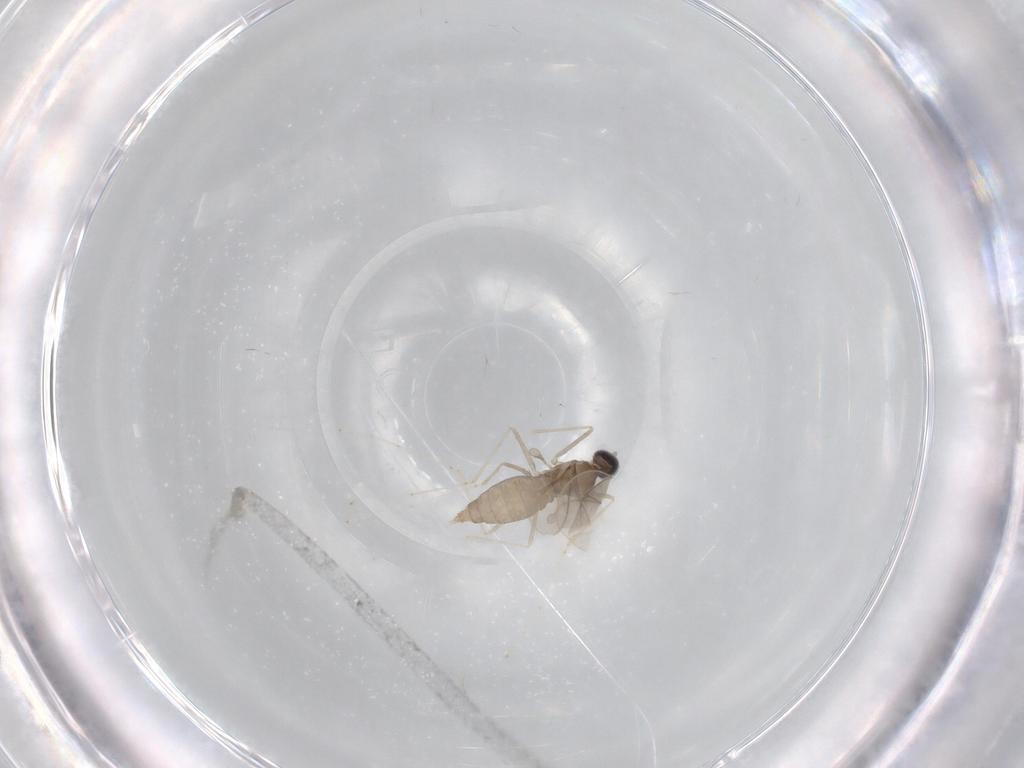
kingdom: Animalia
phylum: Arthropoda
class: Insecta
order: Diptera
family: Cecidomyiidae
